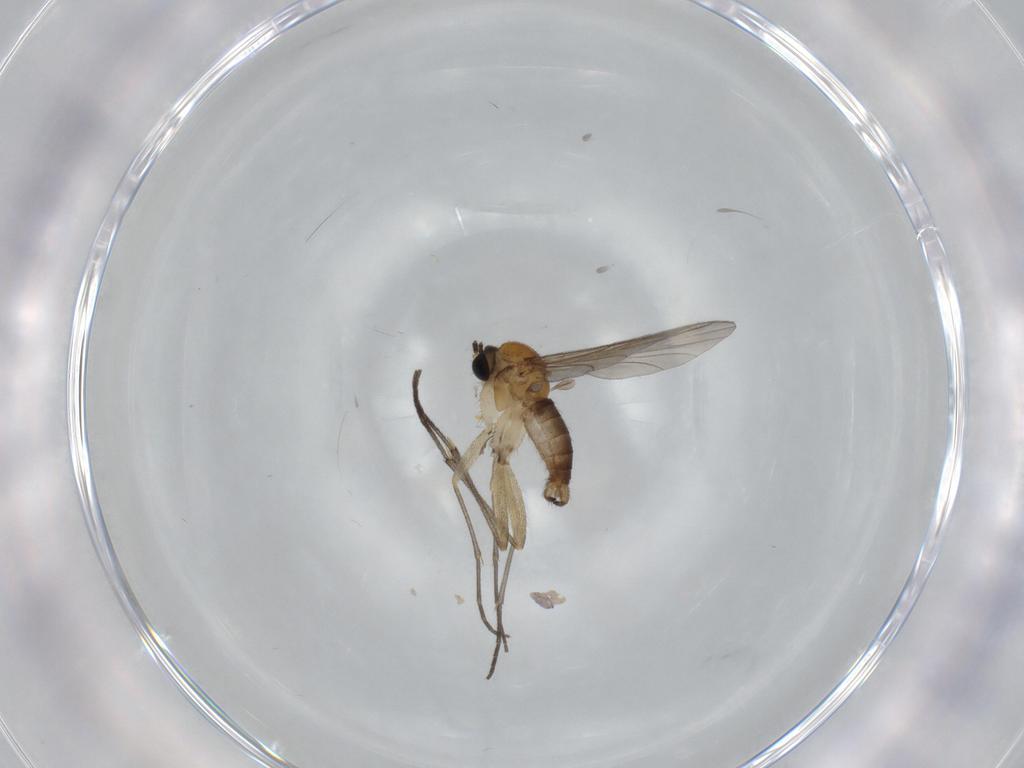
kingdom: Animalia
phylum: Arthropoda
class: Insecta
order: Diptera
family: Sciaridae
